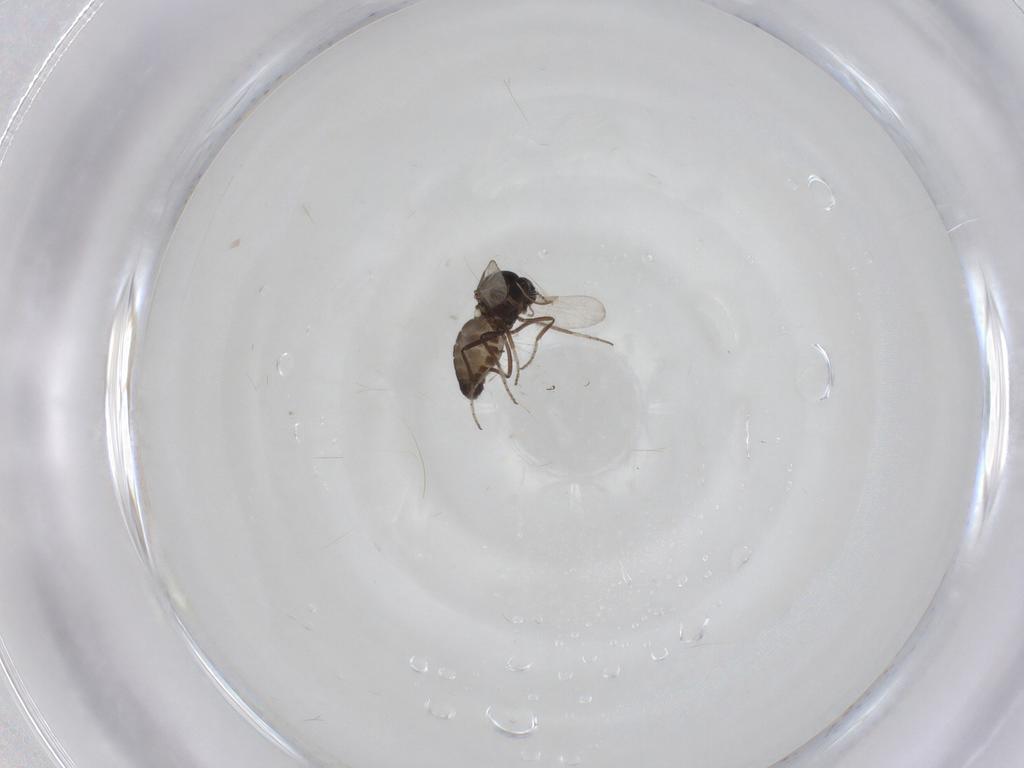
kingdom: Animalia
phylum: Arthropoda
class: Insecta
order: Diptera
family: Ceratopogonidae
